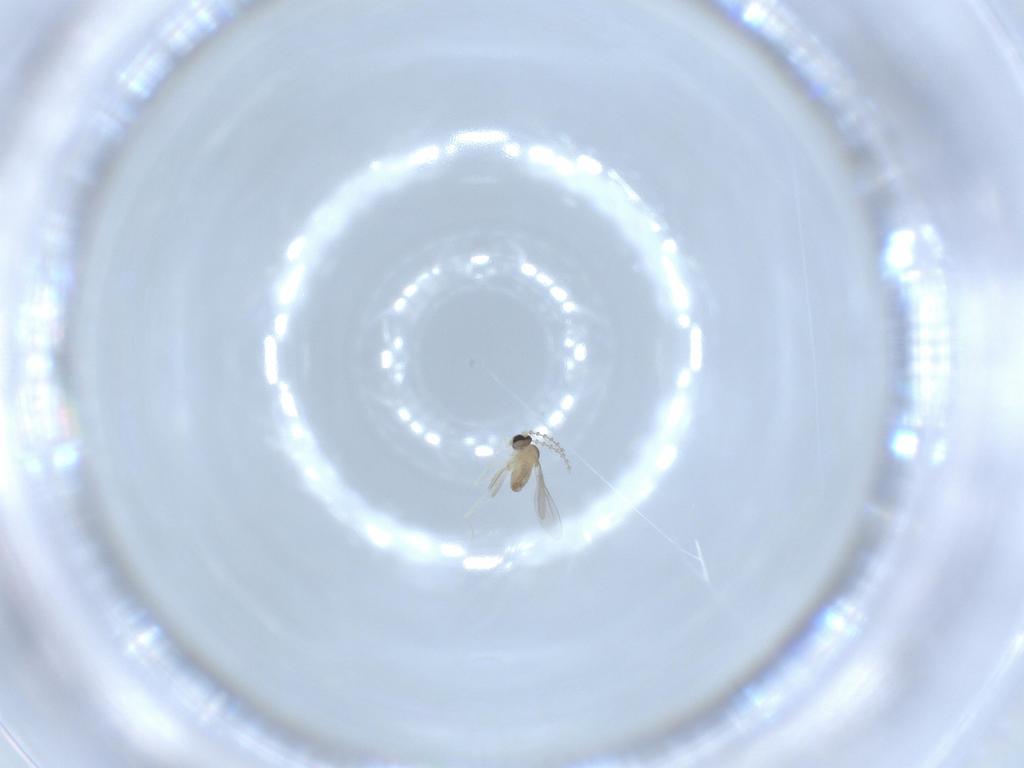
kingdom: Animalia
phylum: Arthropoda
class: Insecta
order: Diptera
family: Cecidomyiidae
